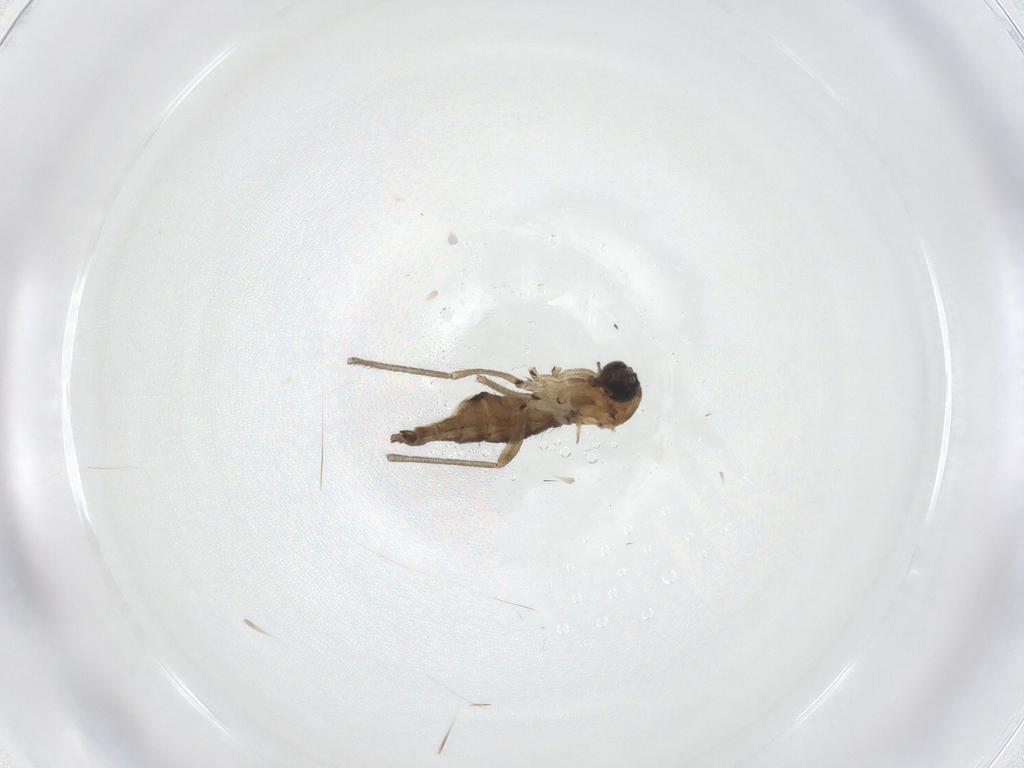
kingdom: Animalia
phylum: Arthropoda
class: Insecta
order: Diptera
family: Sciaridae
